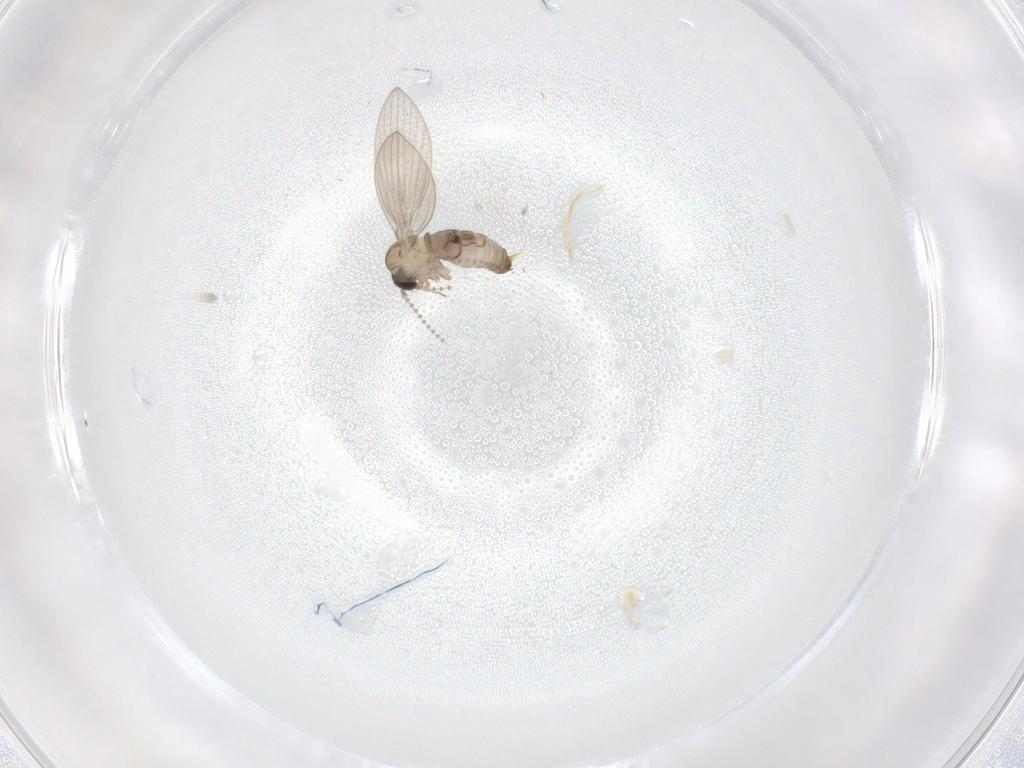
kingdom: Animalia
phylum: Arthropoda
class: Insecta
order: Diptera
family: Psychodidae
